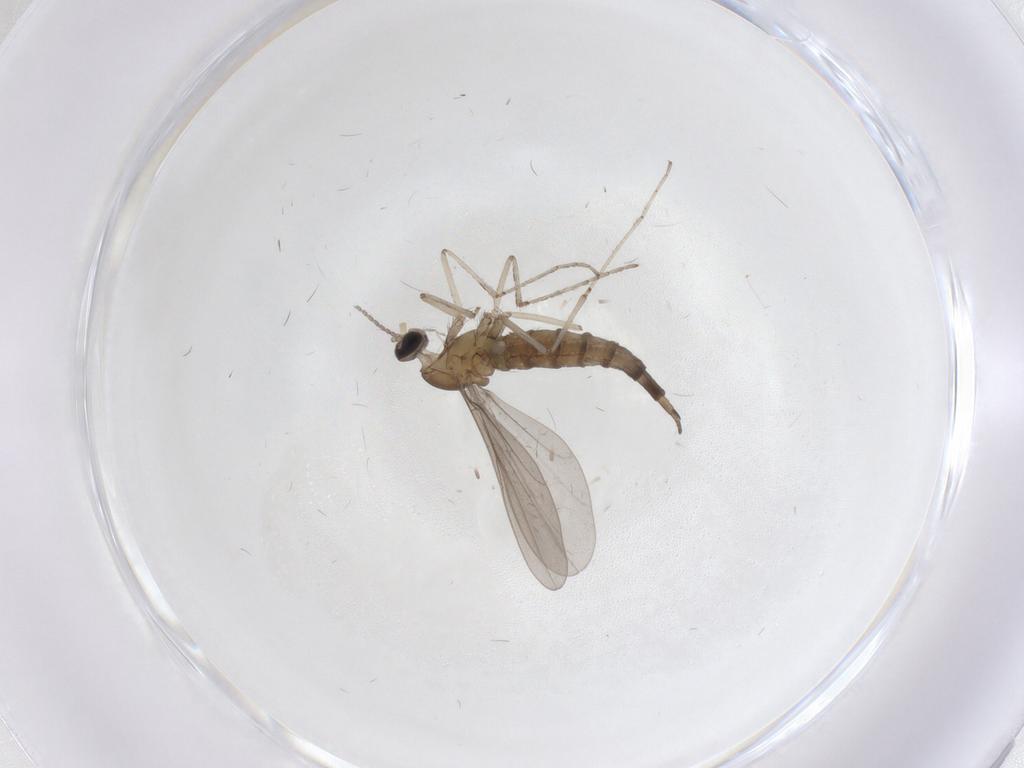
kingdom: Animalia
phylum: Arthropoda
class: Insecta
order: Diptera
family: Cecidomyiidae
